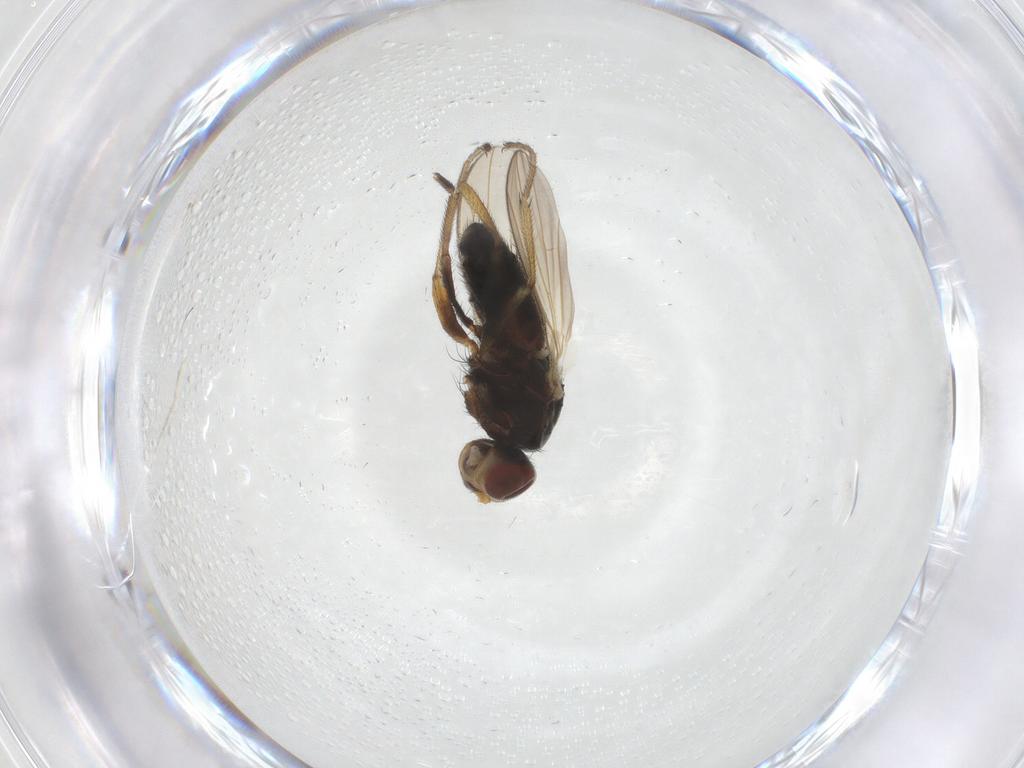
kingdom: Animalia
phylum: Arthropoda
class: Insecta
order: Diptera
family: Heleomyzidae
